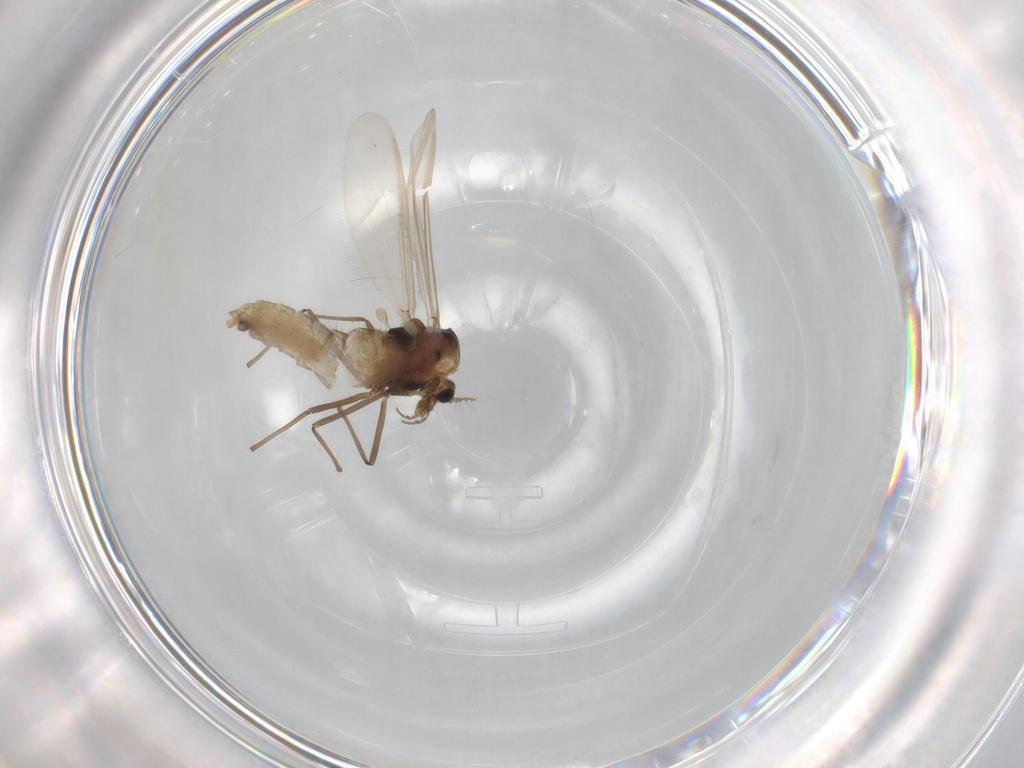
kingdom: Animalia
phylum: Arthropoda
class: Insecta
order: Diptera
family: Chironomidae
